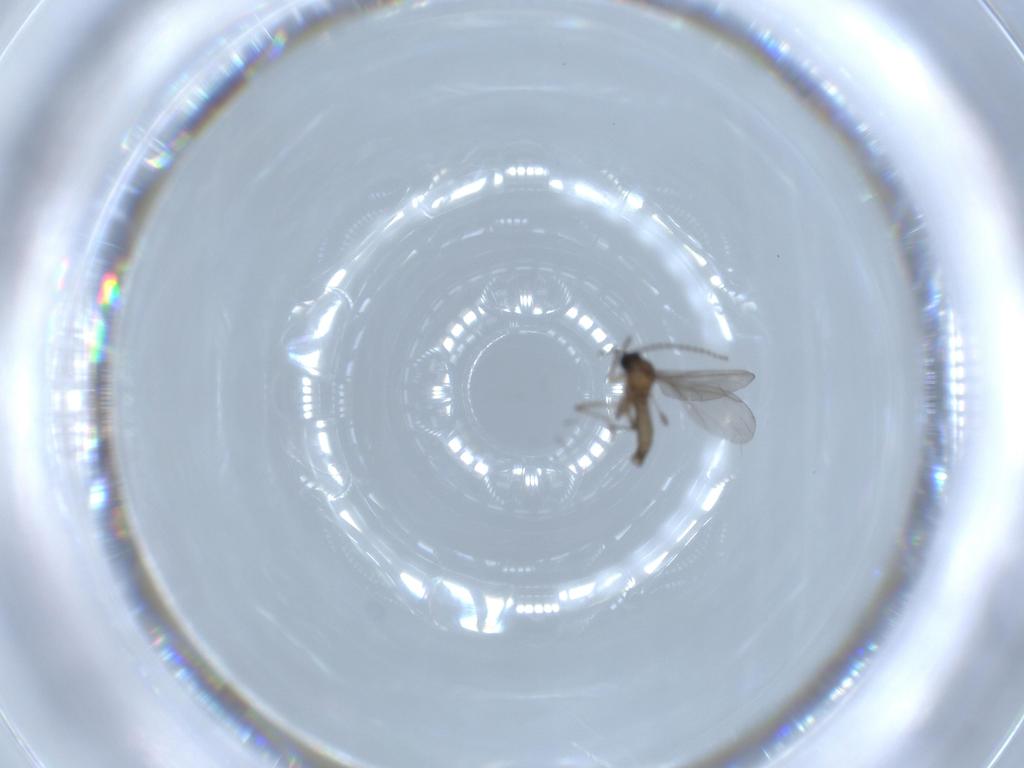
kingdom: Animalia
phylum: Arthropoda
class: Insecta
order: Diptera
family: Sciaridae
